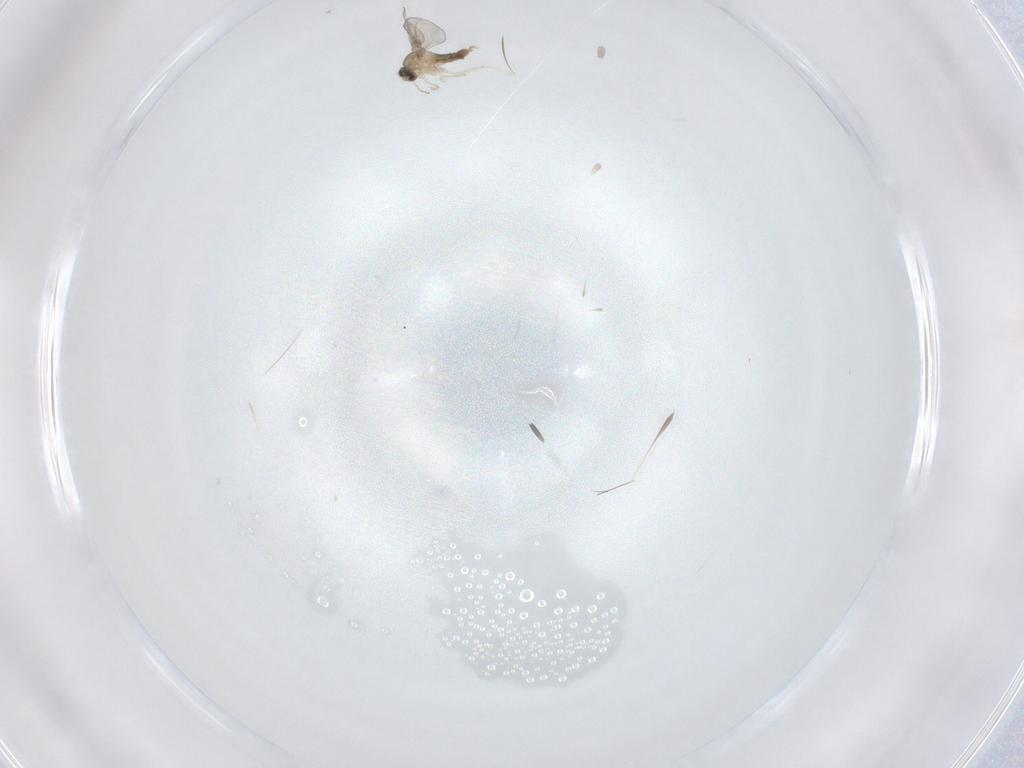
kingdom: Animalia
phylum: Arthropoda
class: Insecta
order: Diptera
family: Cecidomyiidae
